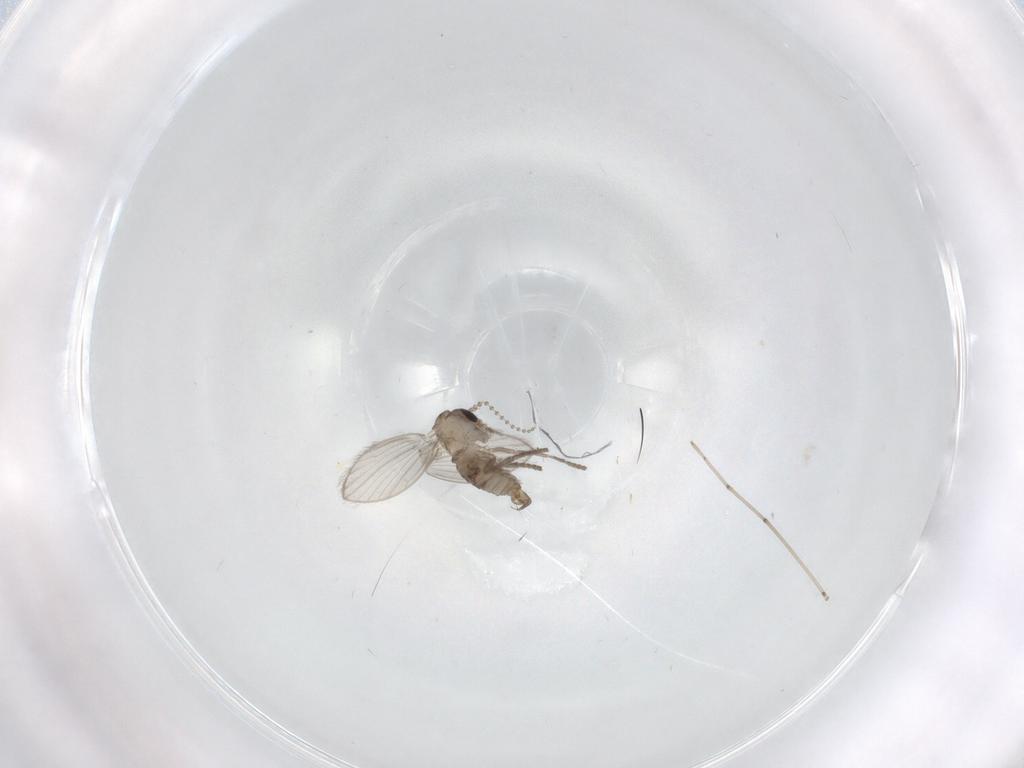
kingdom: Animalia
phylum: Arthropoda
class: Insecta
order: Diptera
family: Psychodidae
